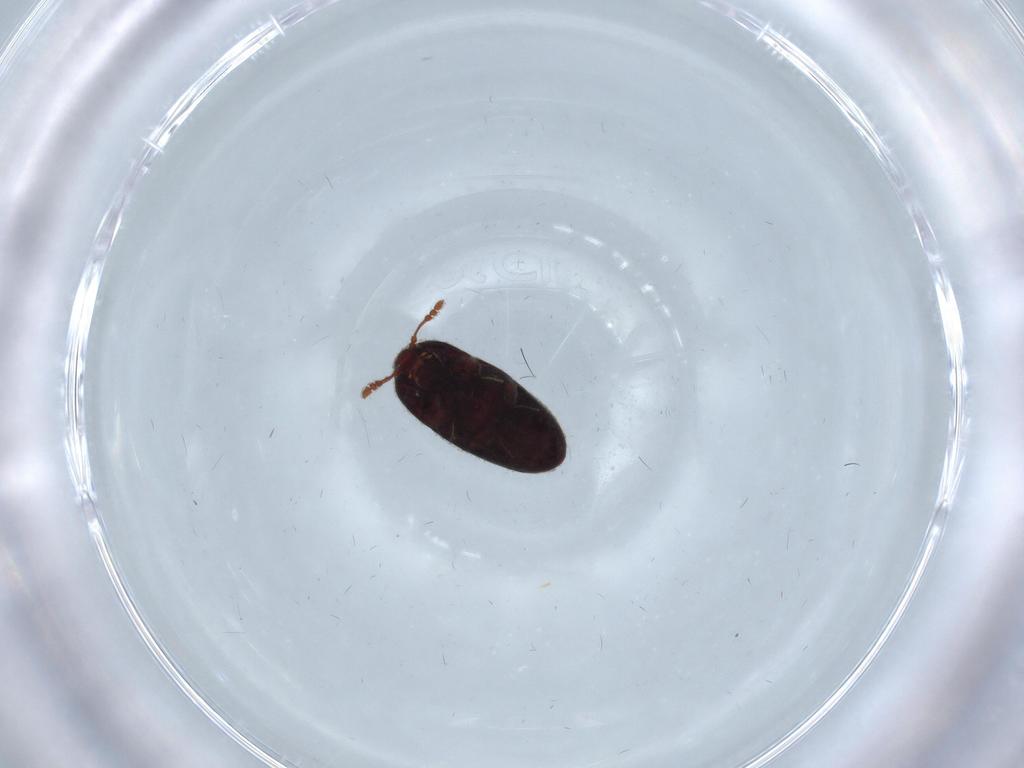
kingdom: Animalia
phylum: Arthropoda
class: Insecta
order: Coleoptera
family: Throscidae
